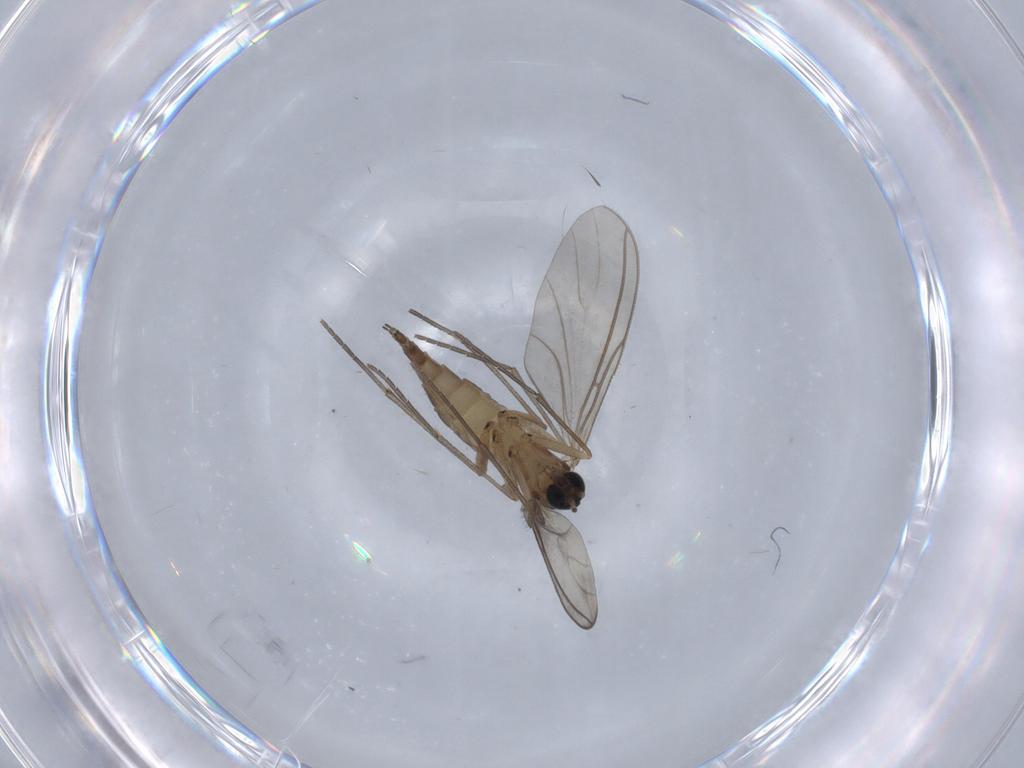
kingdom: Animalia
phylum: Arthropoda
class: Insecta
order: Diptera
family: Sciaridae
